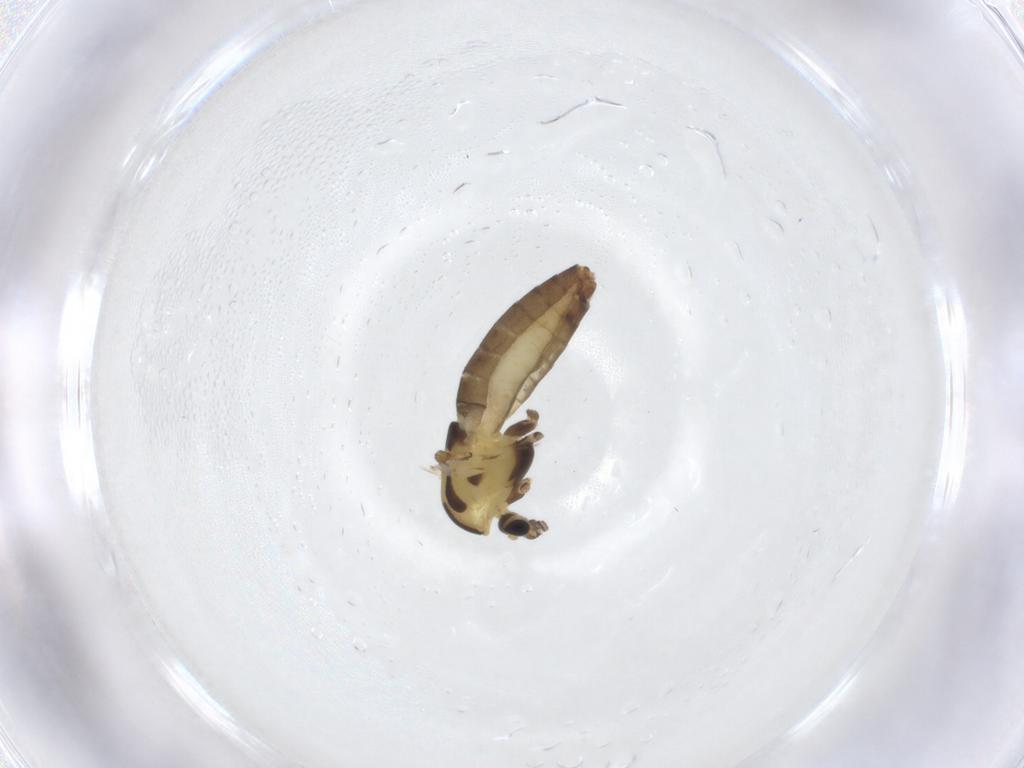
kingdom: Animalia
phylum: Arthropoda
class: Insecta
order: Diptera
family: Chironomidae
